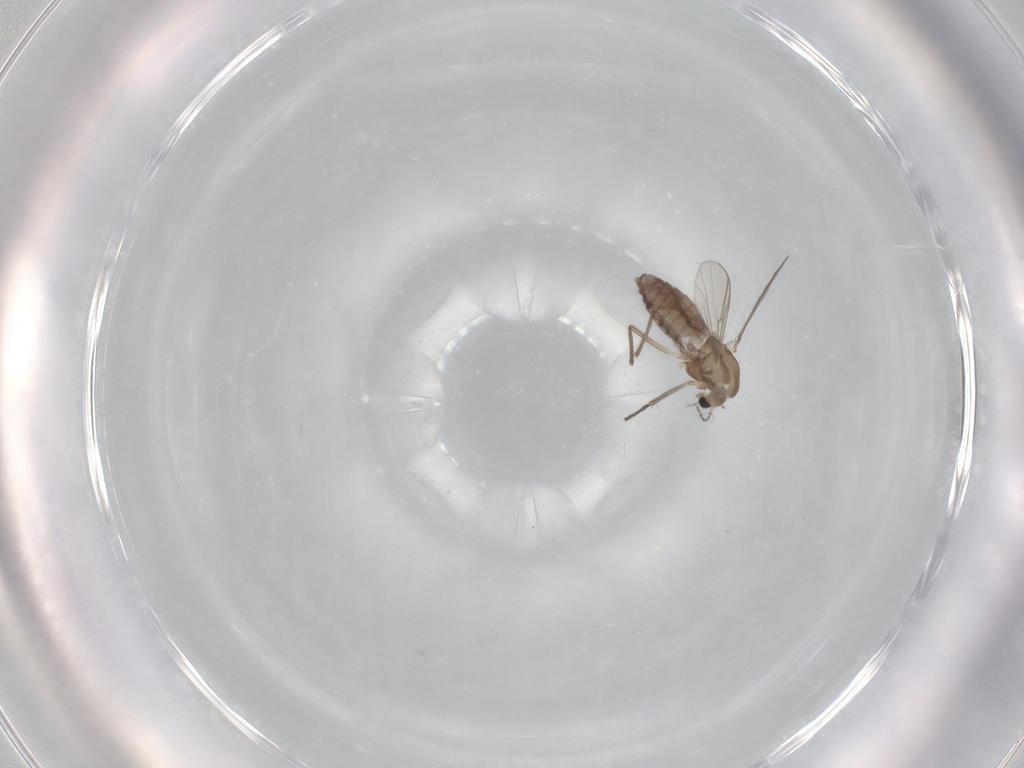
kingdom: Animalia
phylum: Arthropoda
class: Insecta
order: Diptera
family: Chironomidae
